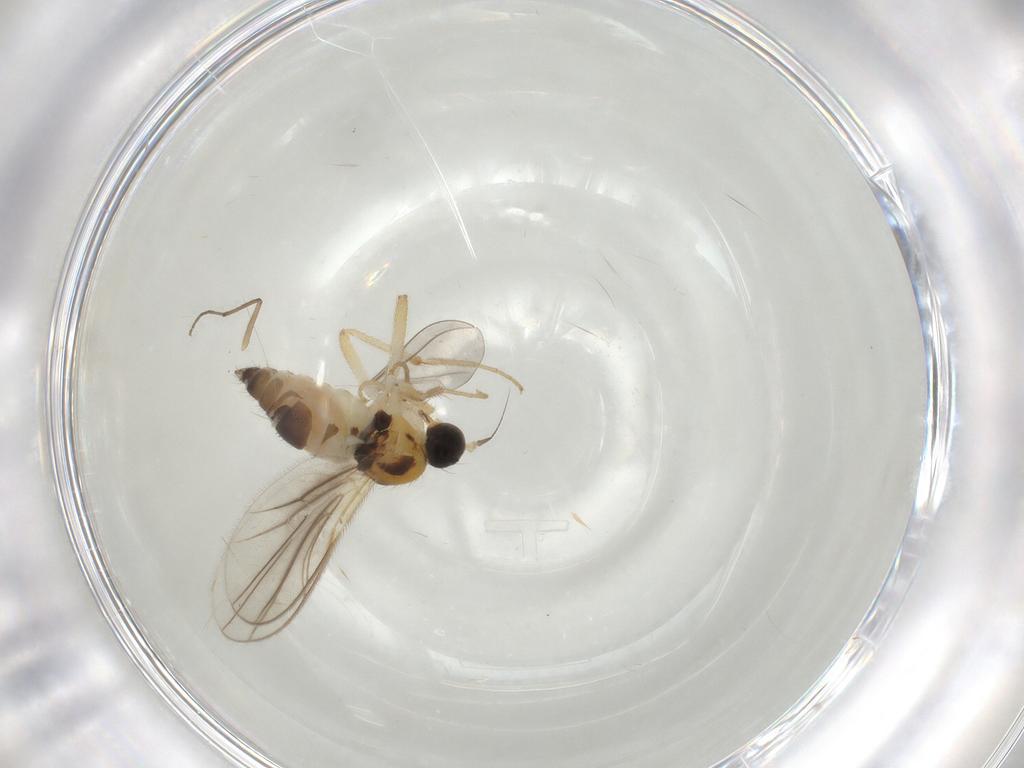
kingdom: Animalia
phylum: Arthropoda
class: Insecta
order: Diptera
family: Hybotidae
